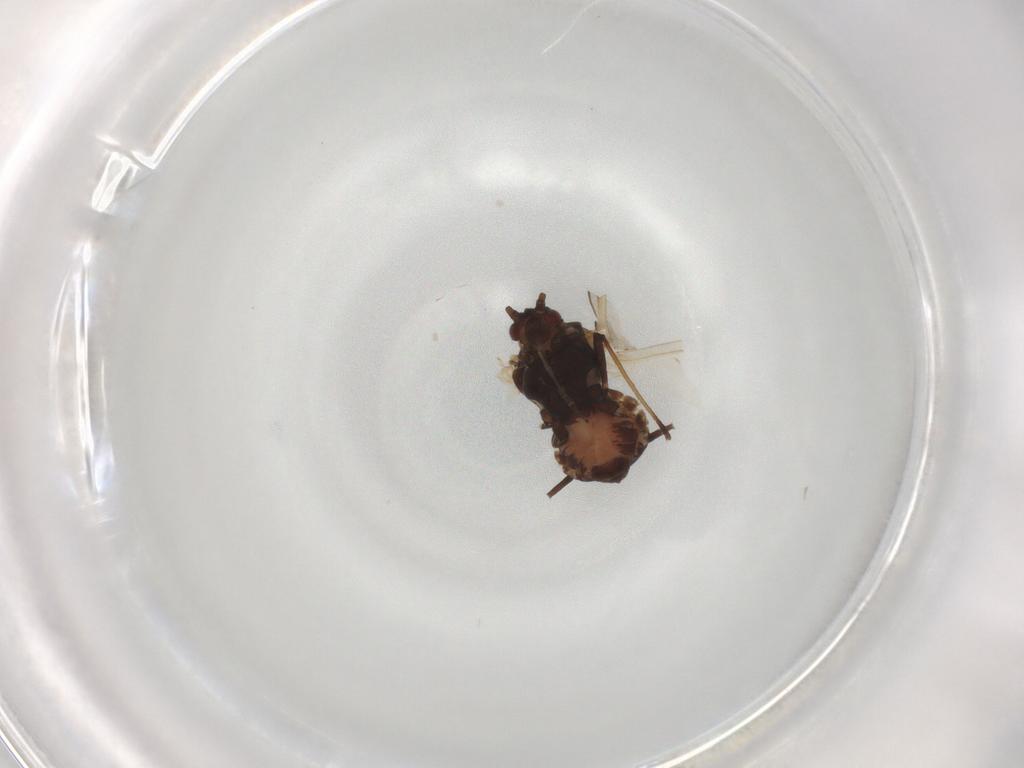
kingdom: Animalia
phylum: Arthropoda
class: Insecta
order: Hemiptera
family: Aphididae
